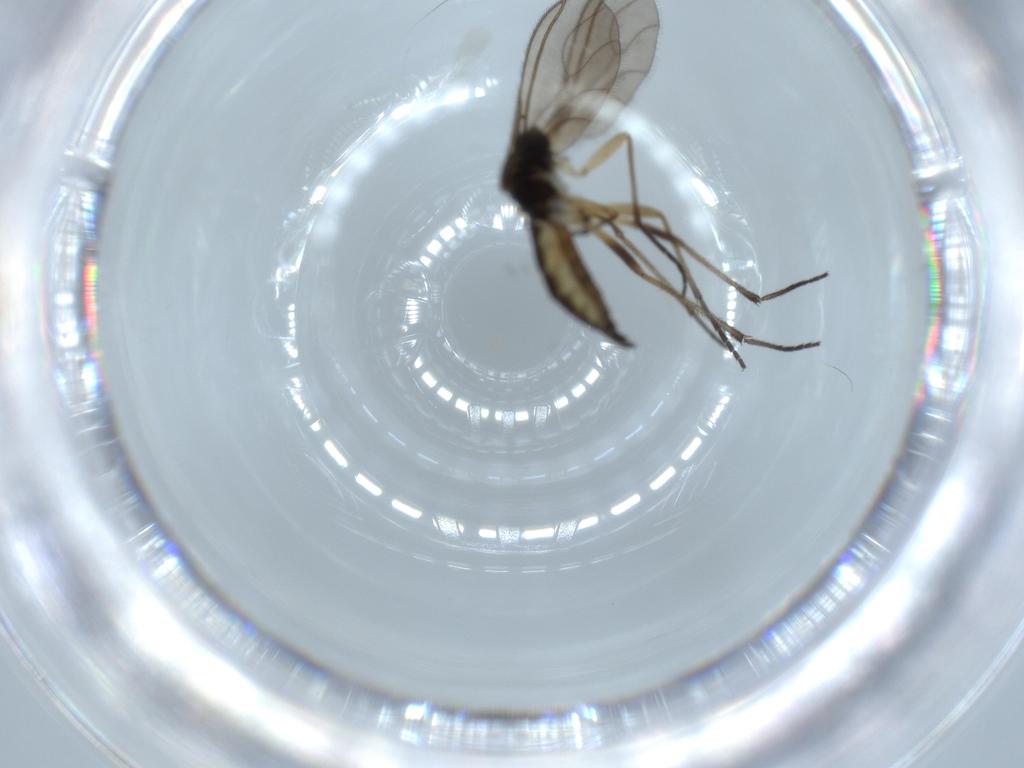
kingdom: Animalia
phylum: Arthropoda
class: Insecta
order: Diptera
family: Sciaridae
